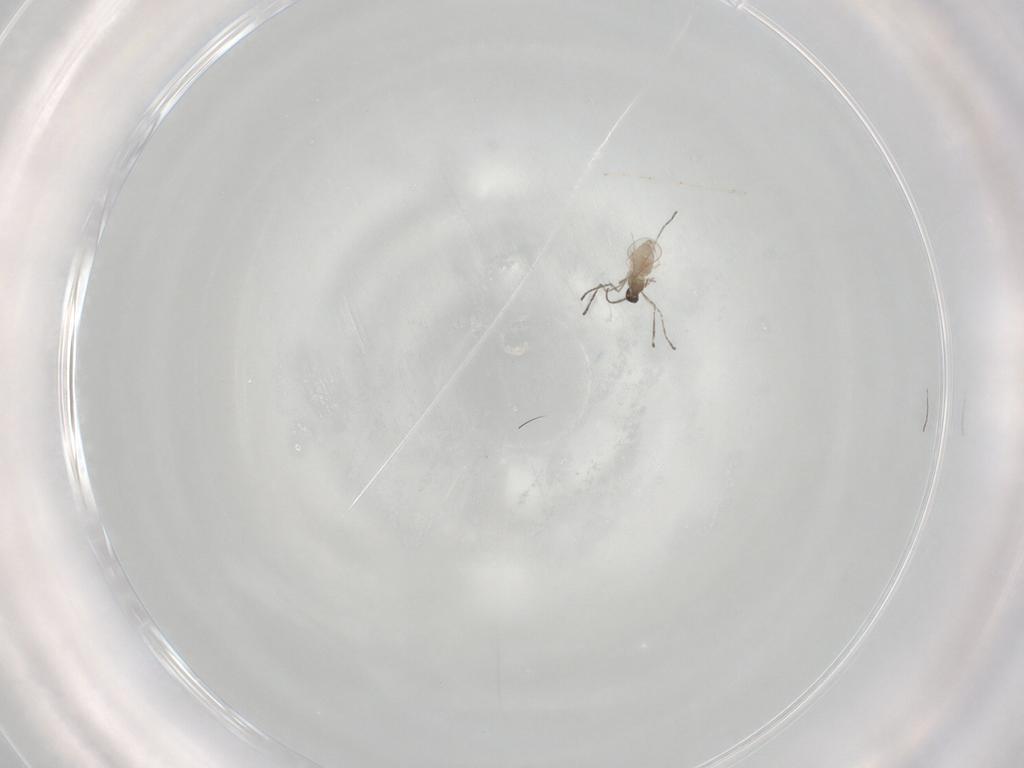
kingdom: Animalia
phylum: Arthropoda
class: Insecta
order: Diptera
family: Cecidomyiidae
